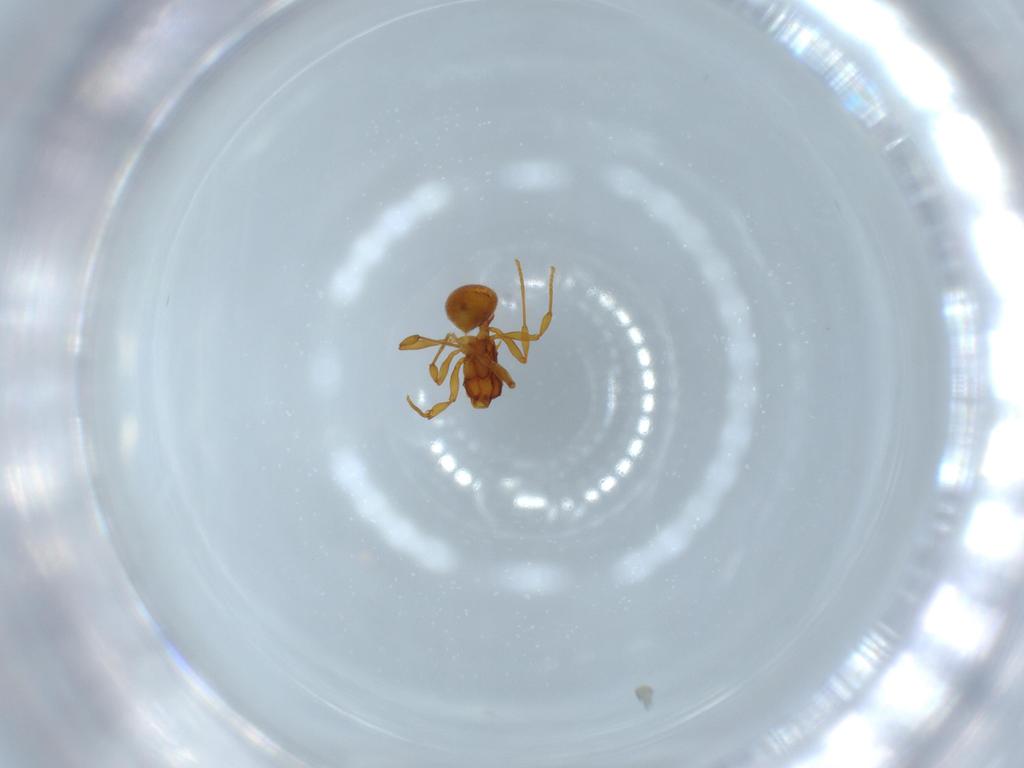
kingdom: Animalia
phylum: Arthropoda
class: Insecta
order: Hymenoptera
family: Formicidae
